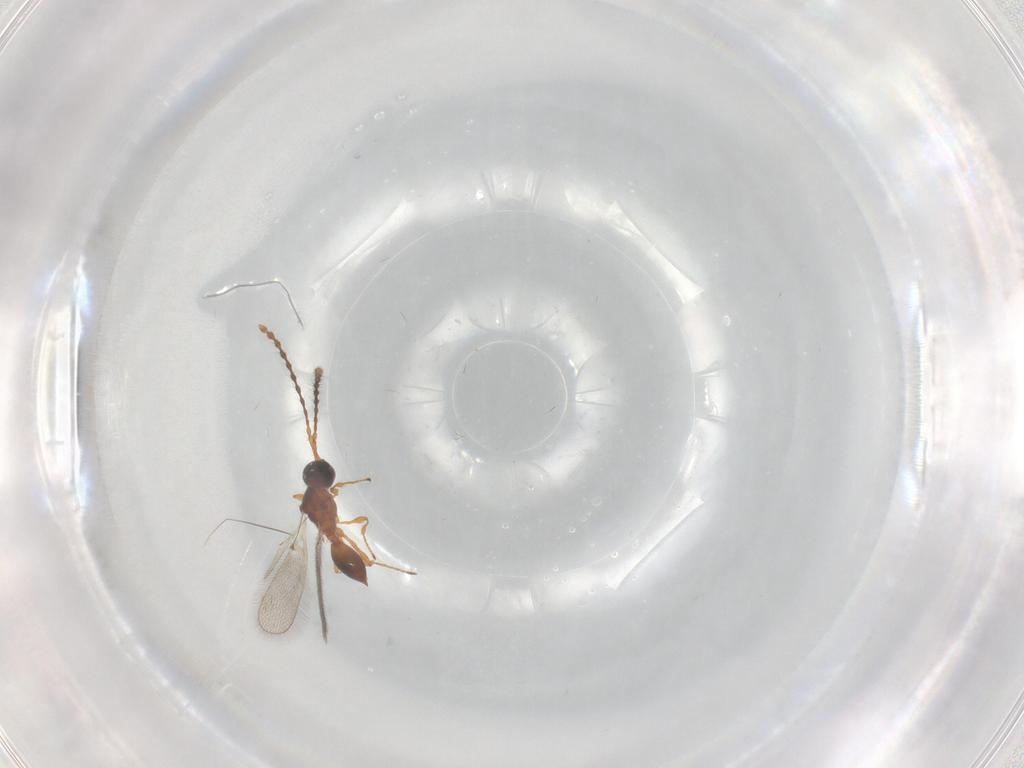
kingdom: Animalia
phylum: Arthropoda
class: Insecta
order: Hymenoptera
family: Diapriidae
